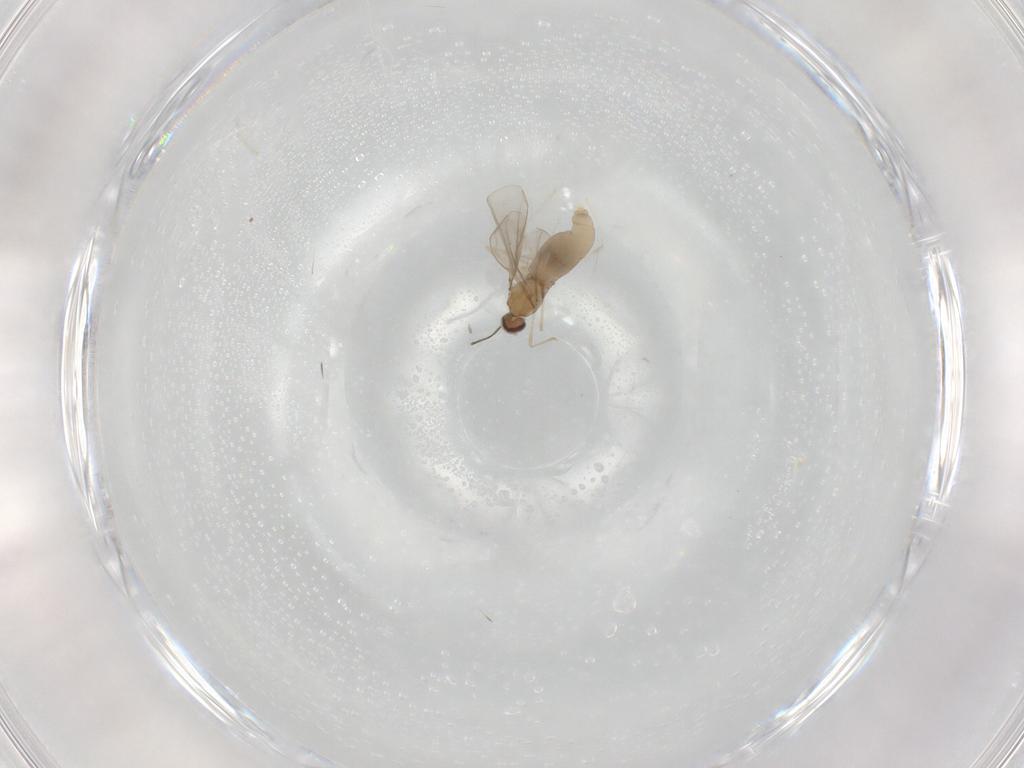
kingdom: Animalia
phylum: Arthropoda
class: Insecta
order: Diptera
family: Cecidomyiidae
